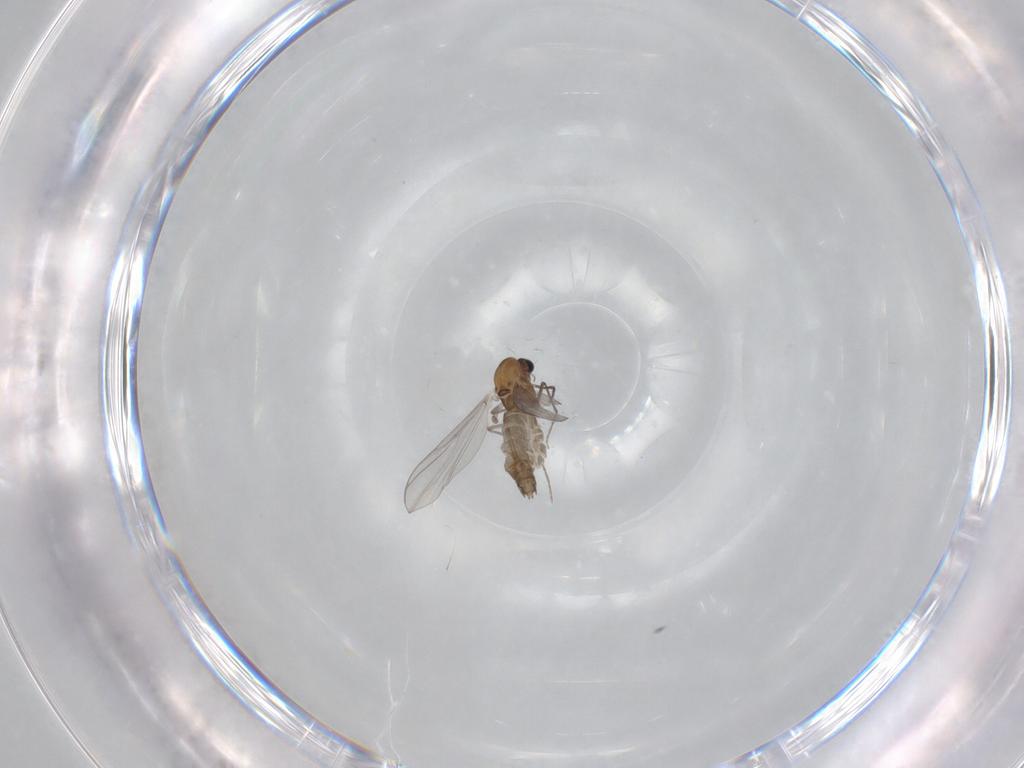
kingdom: Animalia
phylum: Arthropoda
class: Insecta
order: Diptera
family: Chironomidae
